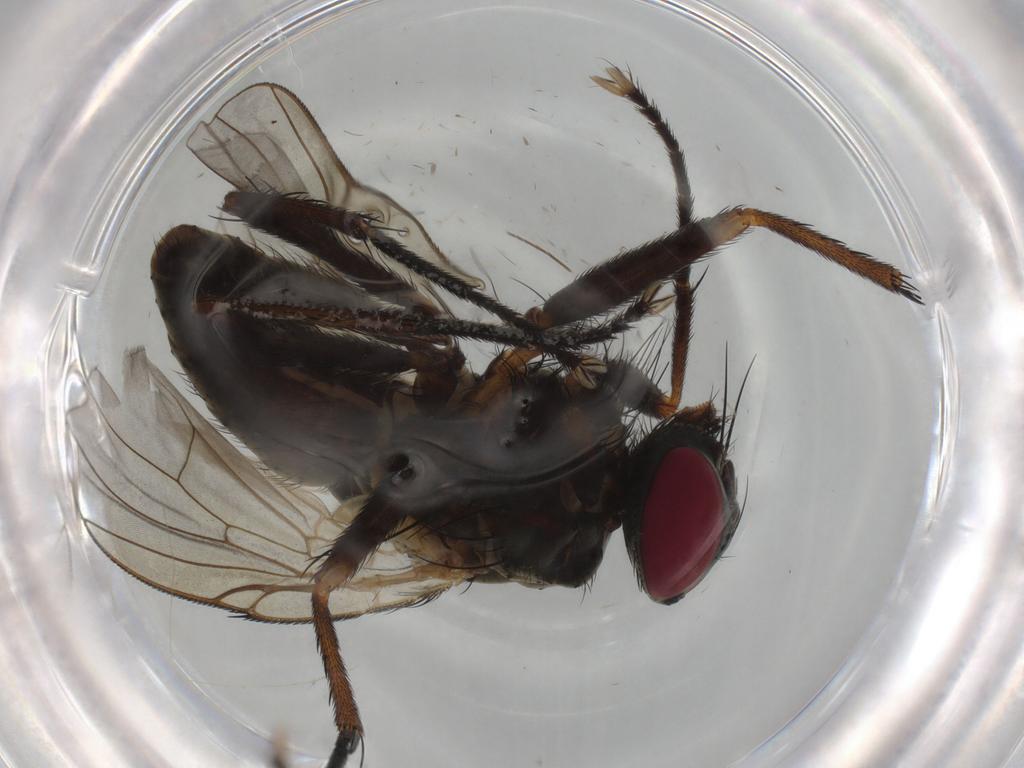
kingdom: Animalia
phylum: Arthropoda
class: Insecta
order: Diptera
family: Muscidae
